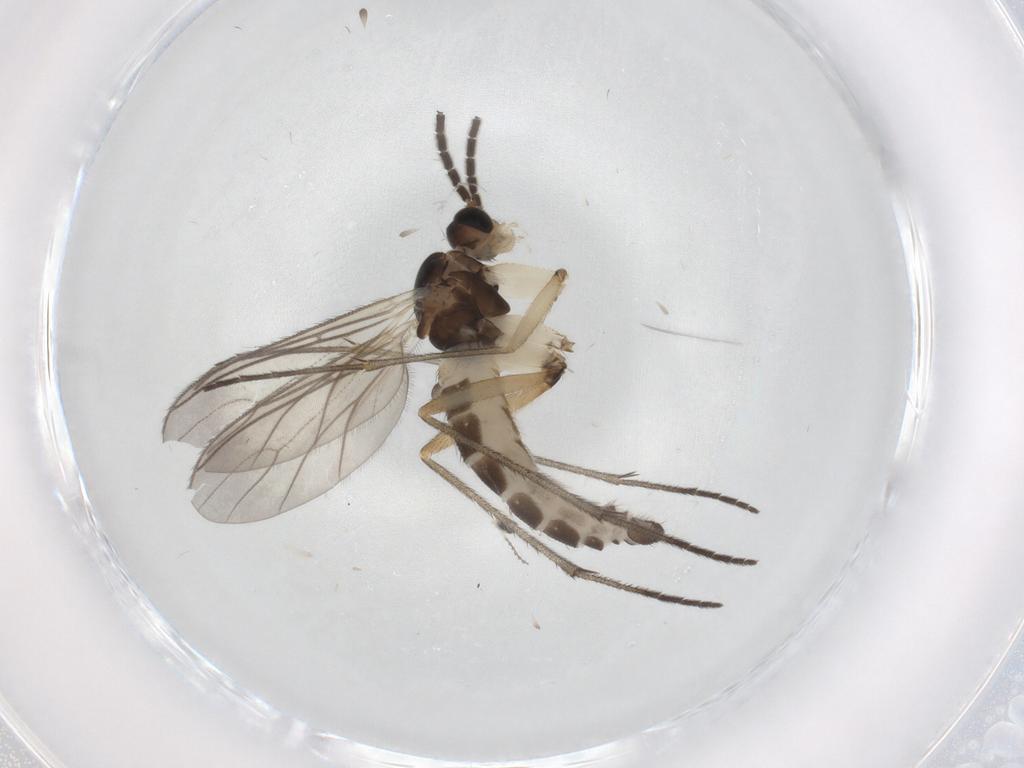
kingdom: Animalia
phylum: Arthropoda
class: Insecta
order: Diptera
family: Sciaridae
